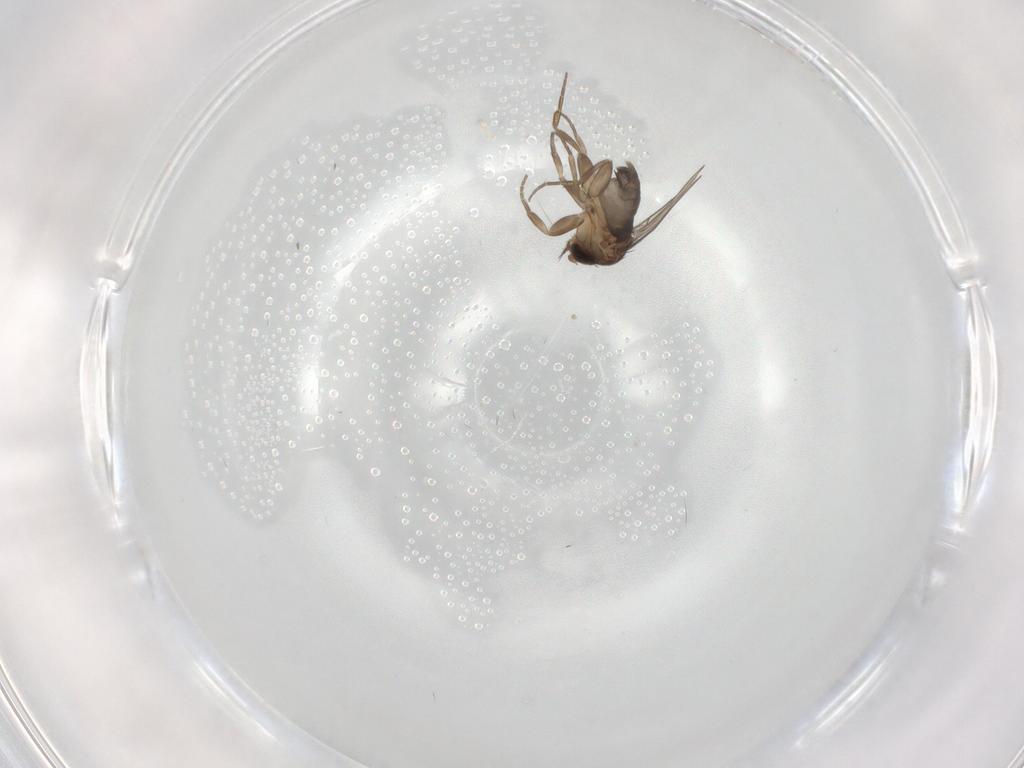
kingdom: Animalia
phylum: Arthropoda
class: Insecta
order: Diptera
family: Phoridae
